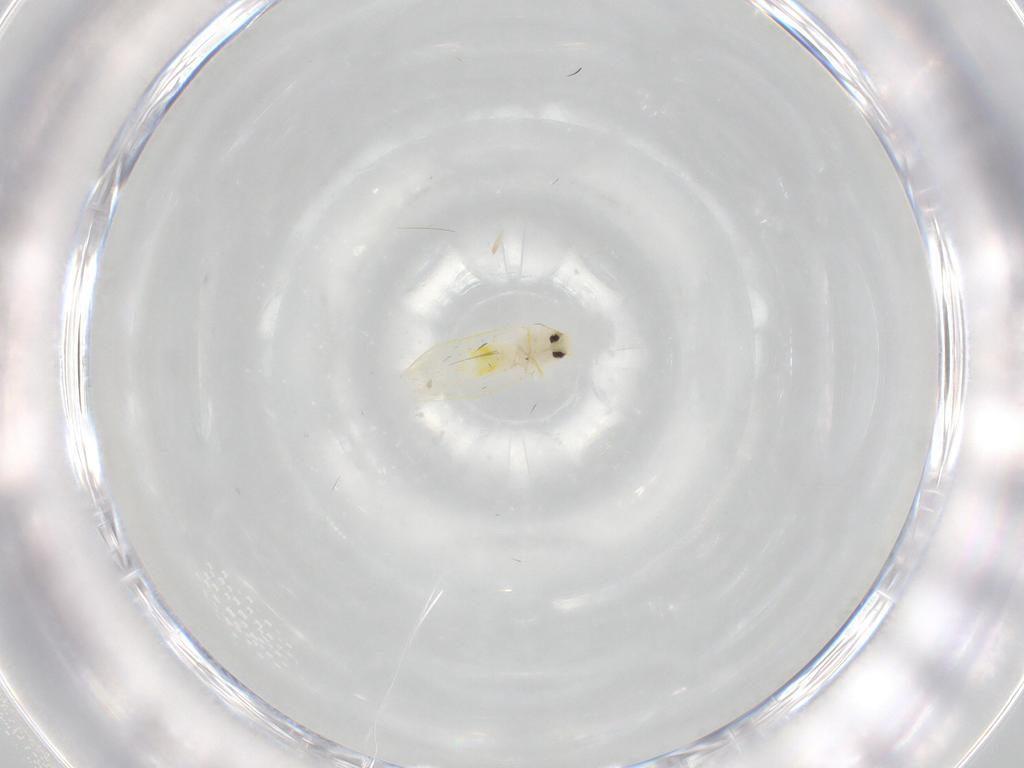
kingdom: Animalia
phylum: Arthropoda
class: Insecta
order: Hemiptera
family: Aleyrodidae
